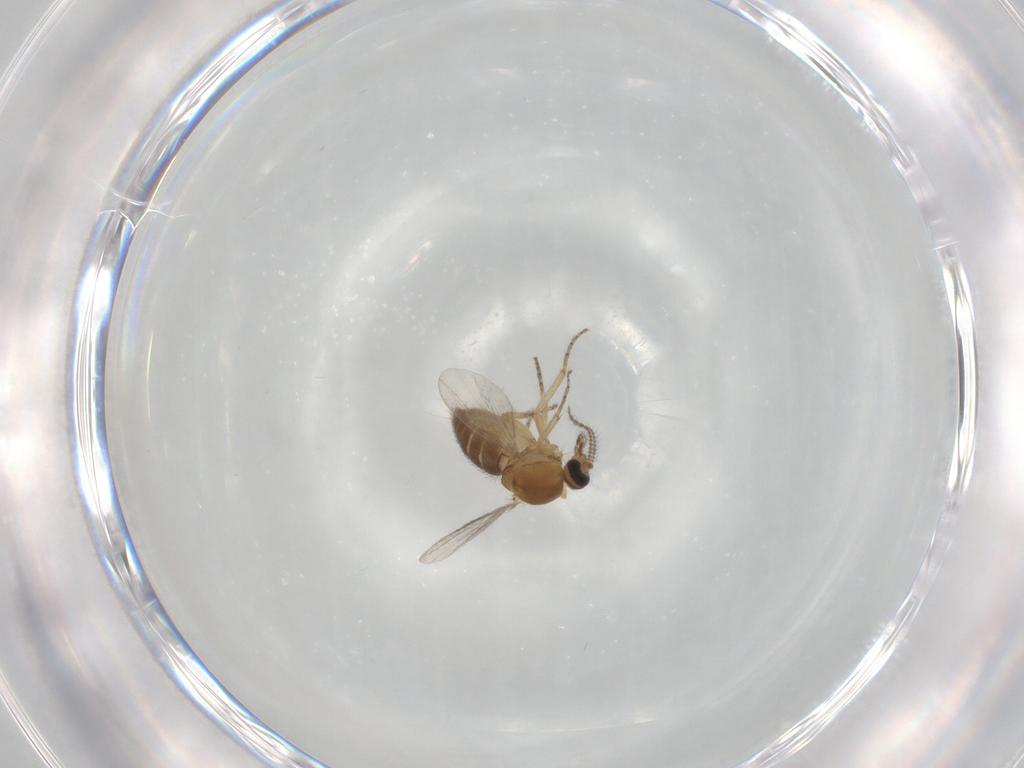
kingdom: Animalia
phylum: Arthropoda
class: Insecta
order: Diptera
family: Ceratopogonidae
